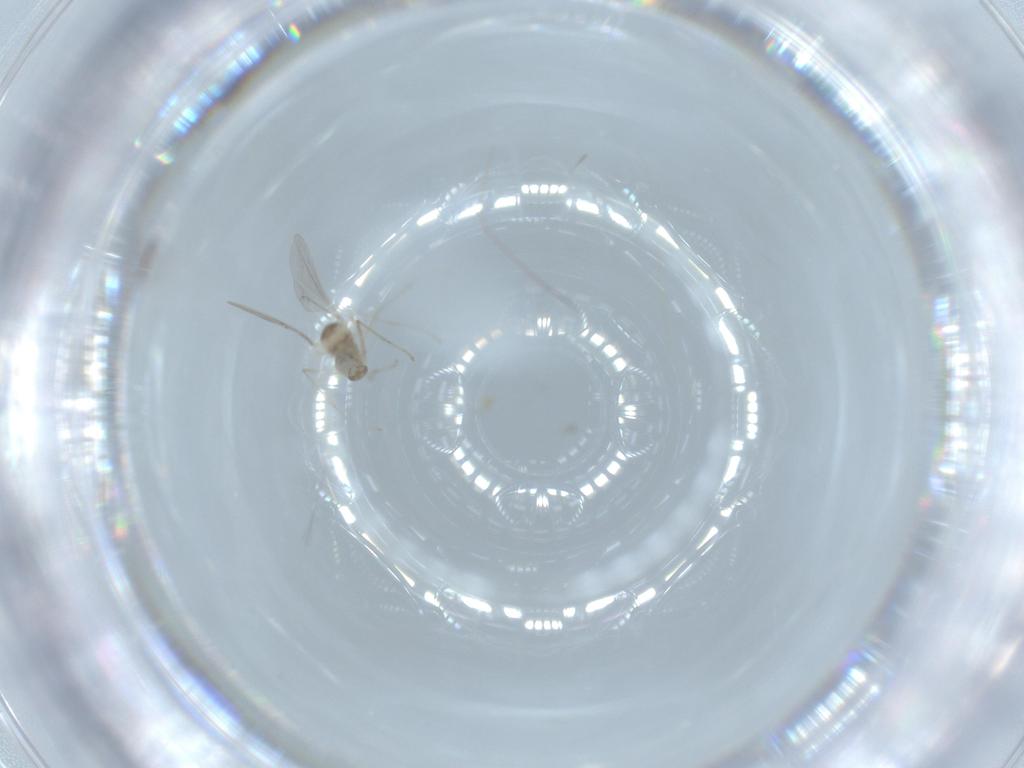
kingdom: Animalia
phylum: Arthropoda
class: Insecta
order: Diptera
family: Cecidomyiidae
